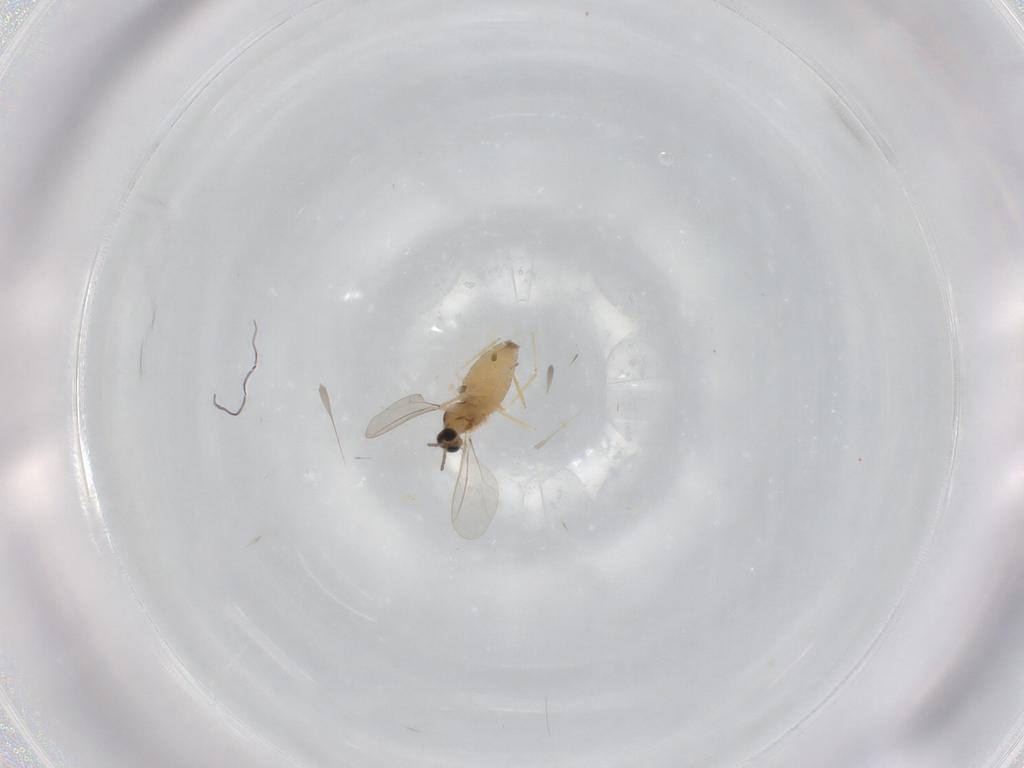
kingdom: Animalia
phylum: Arthropoda
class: Insecta
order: Diptera
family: Cecidomyiidae
